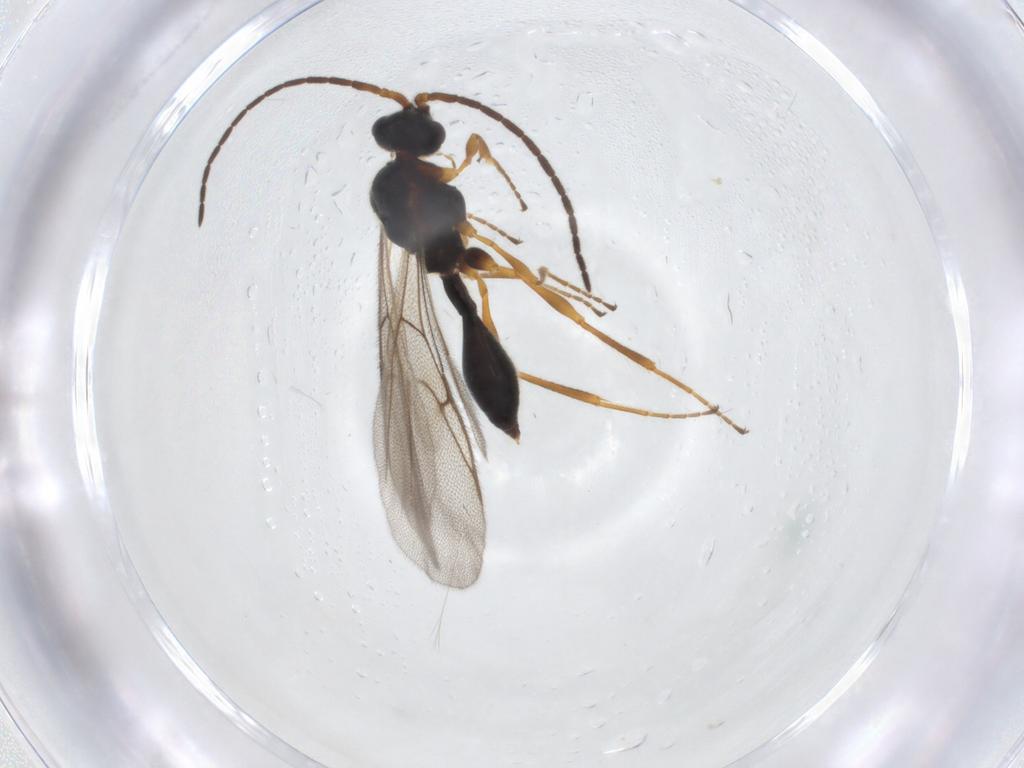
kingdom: Animalia
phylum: Arthropoda
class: Insecta
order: Hymenoptera
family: Diapriidae
